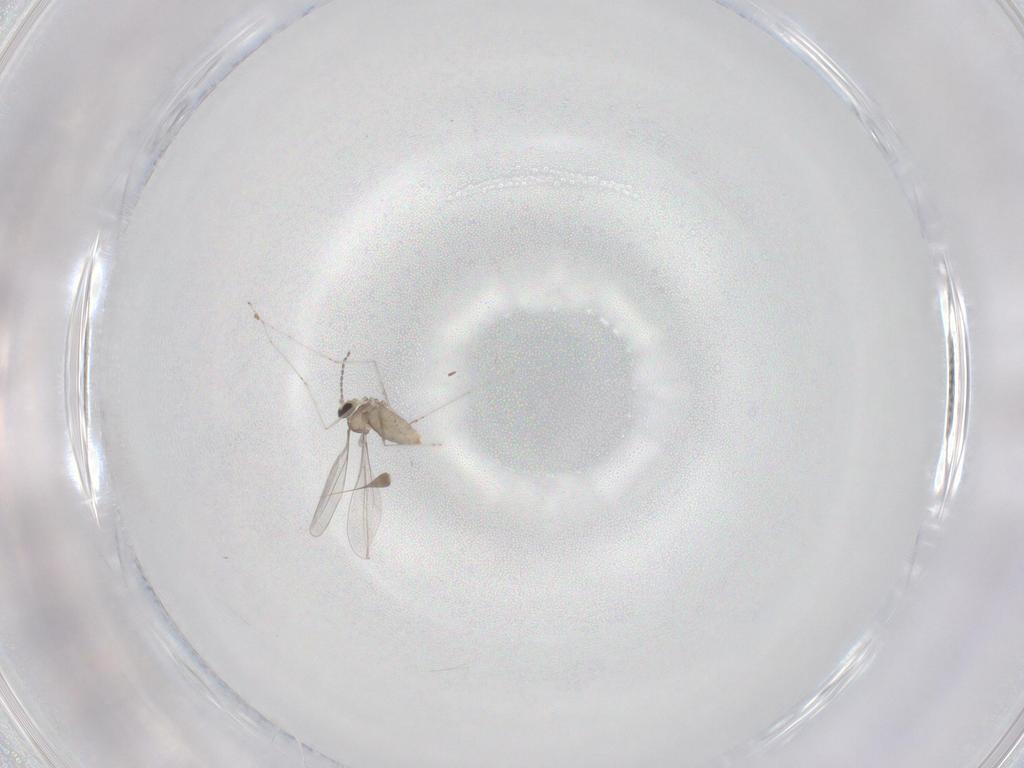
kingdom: Animalia
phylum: Arthropoda
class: Insecta
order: Diptera
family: Cecidomyiidae
